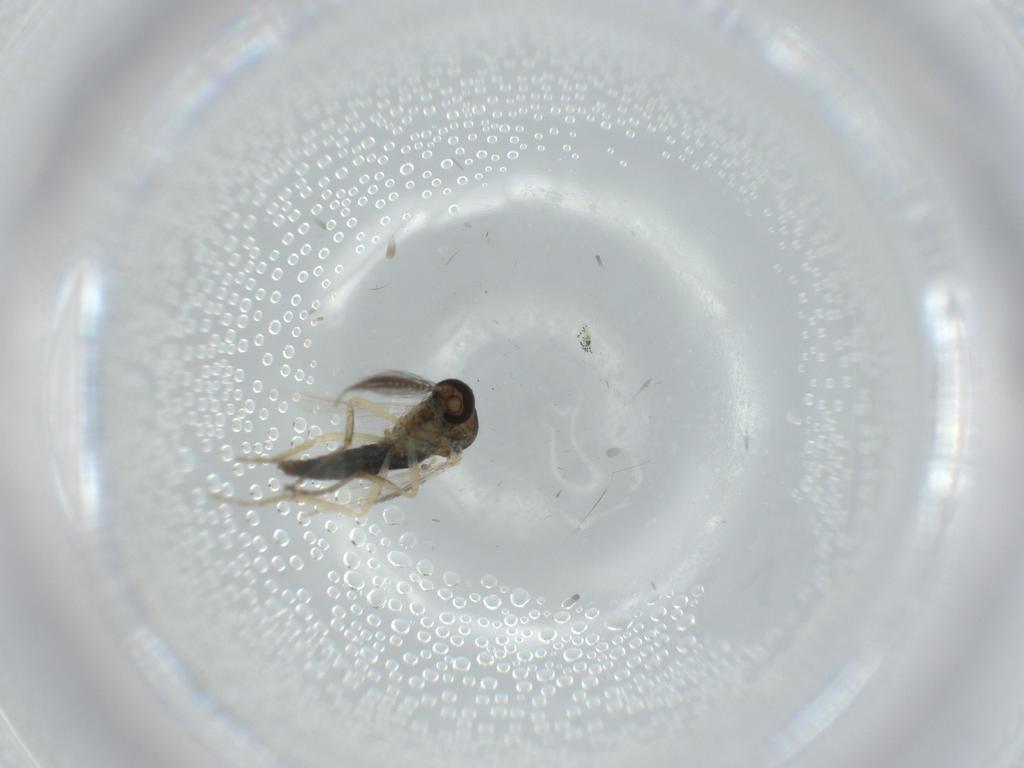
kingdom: Animalia
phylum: Arthropoda
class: Insecta
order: Diptera
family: Ceratopogonidae
